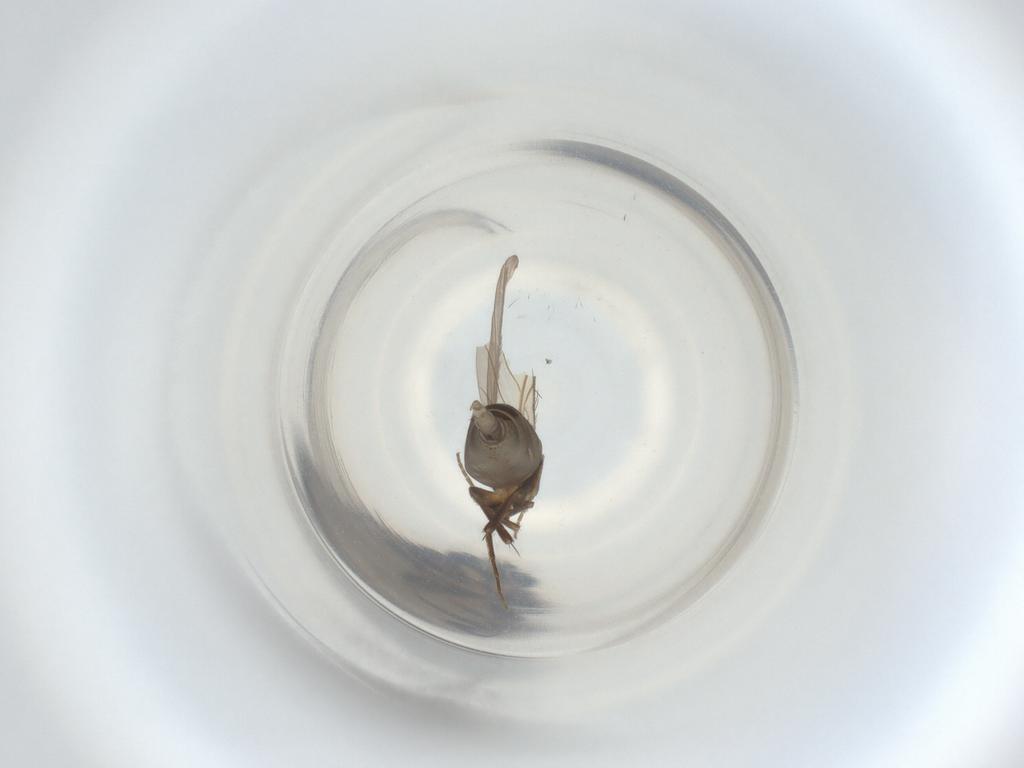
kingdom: Animalia
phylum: Arthropoda
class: Insecta
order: Diptera
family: Phoridae
